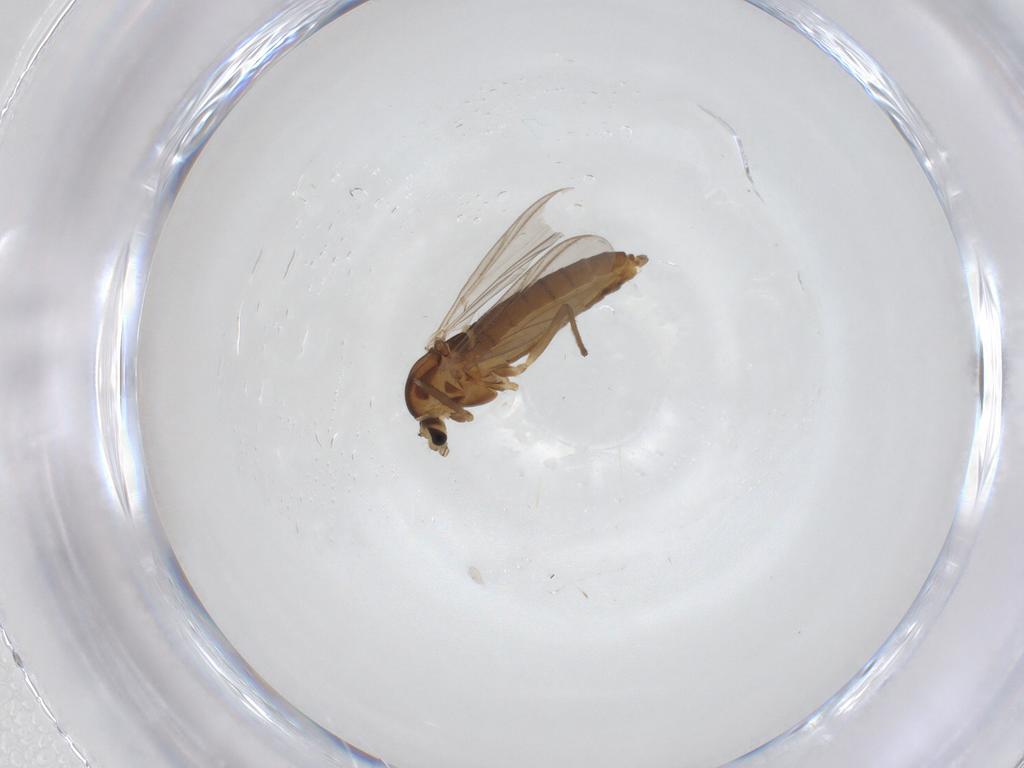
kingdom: Animalia
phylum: Arthropoda
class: Insecta
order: Diptera
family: Chironomidae
